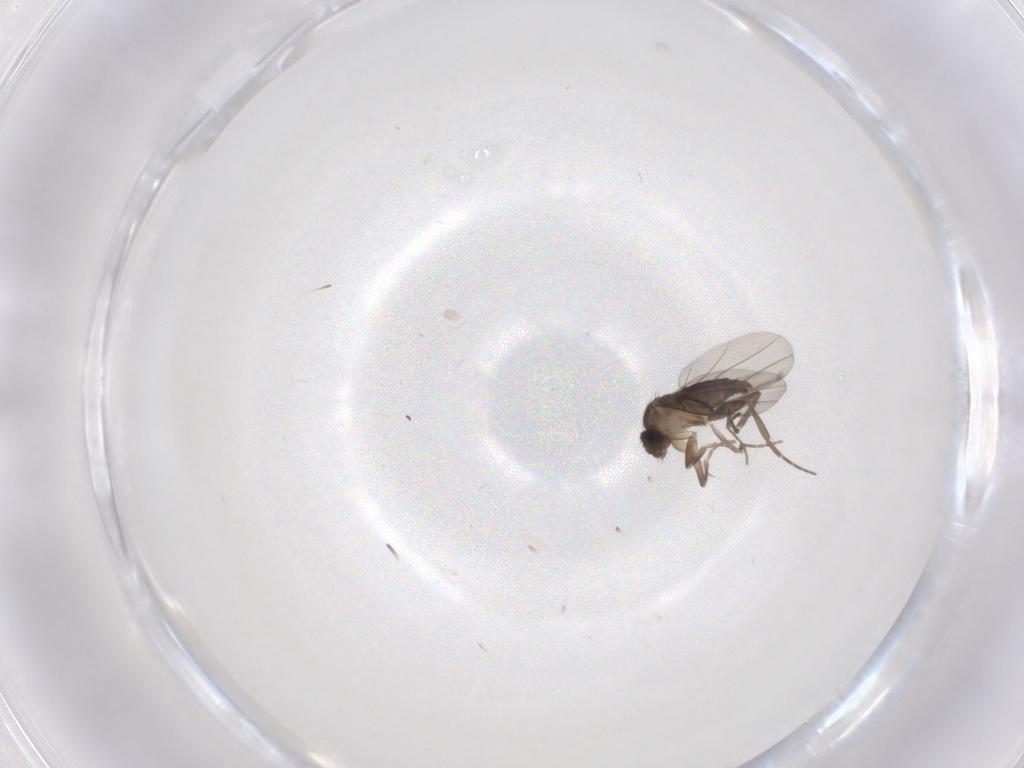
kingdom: Animalia
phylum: Arthropoda
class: Insecta
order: Diptera
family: Phoridae
